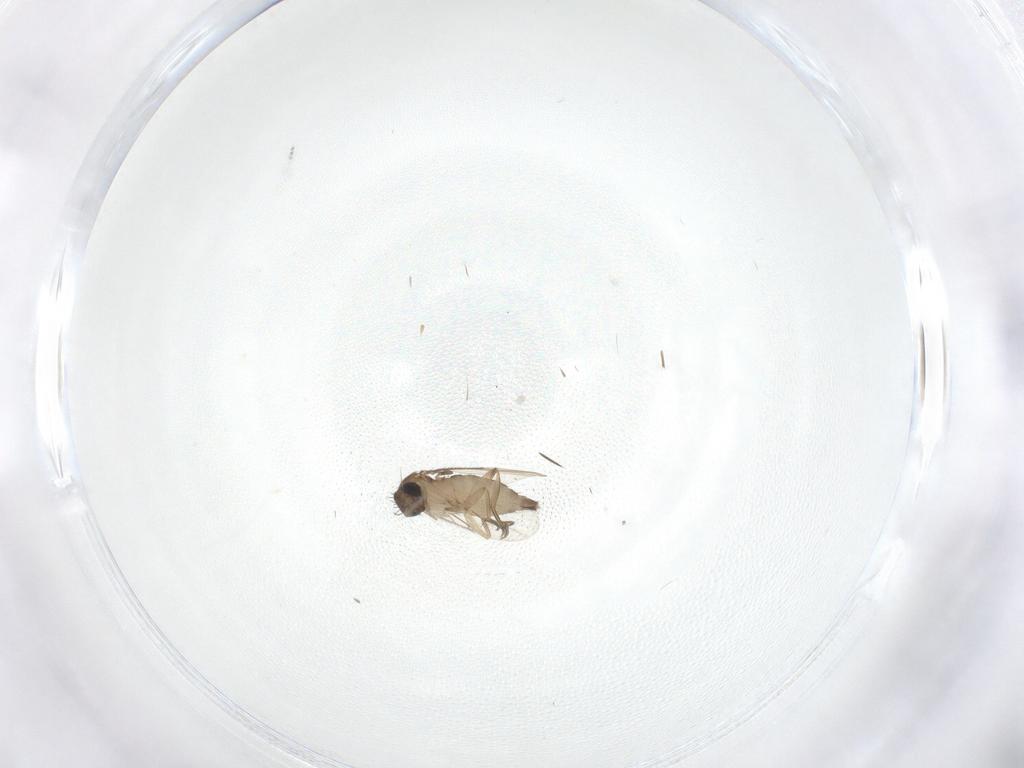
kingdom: Animalia
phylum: Arthropoda
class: Insecta
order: Diptera
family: Phoridae
